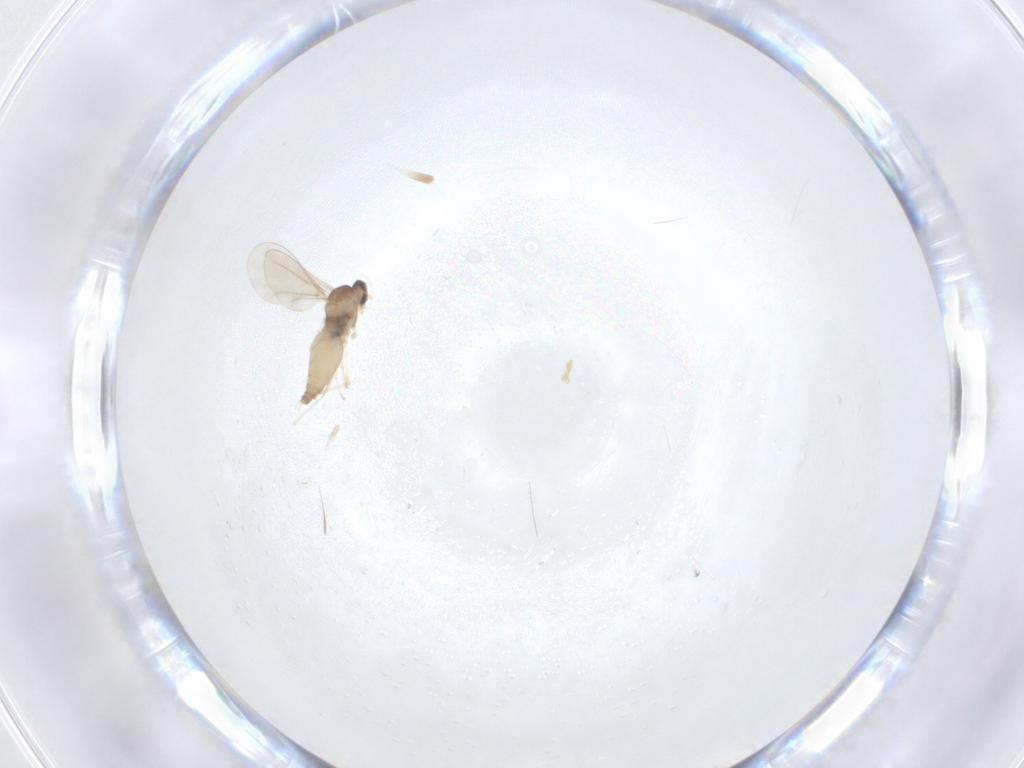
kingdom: Animalia
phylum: Arthropoda
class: Insecta
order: Diptera
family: Cecidomyiidae
